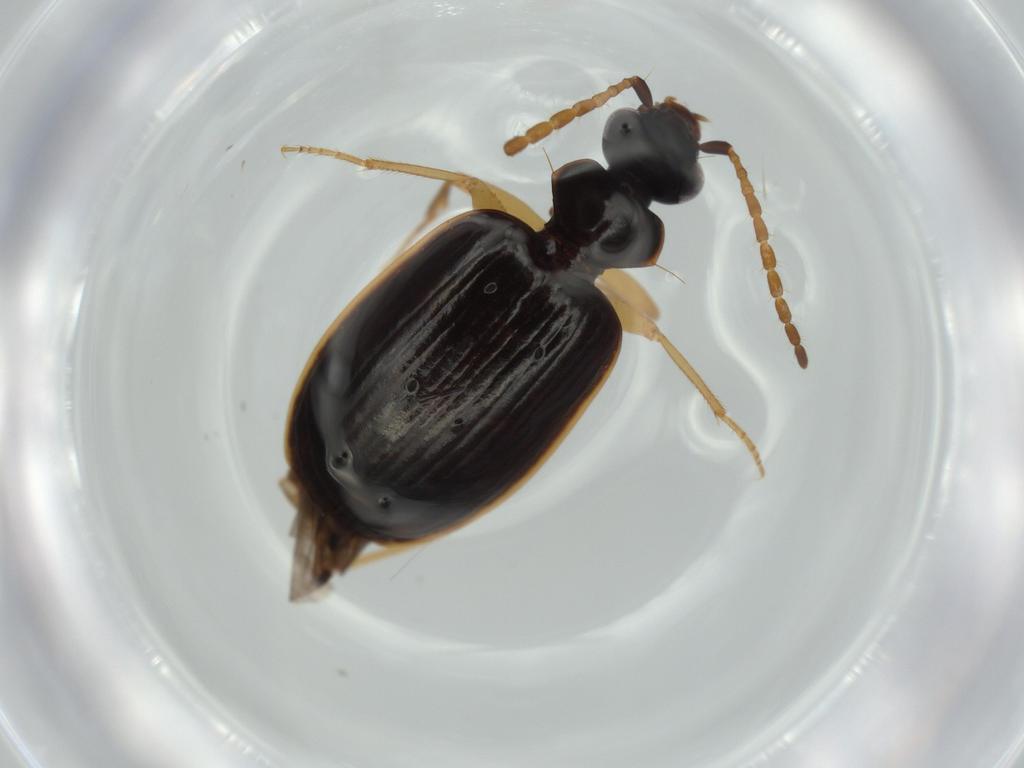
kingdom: Animalia
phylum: Arthropoda
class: Insecta
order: Coleoptera
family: Carabidae
